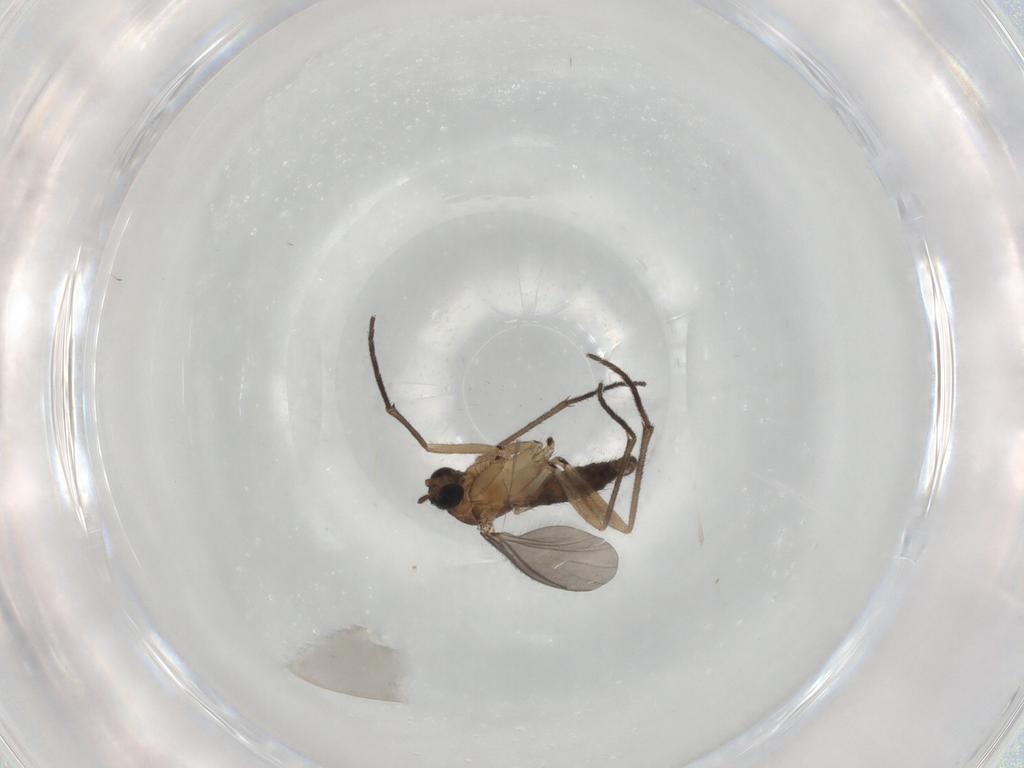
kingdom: Animalia
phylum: Arthropoda
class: Insecta
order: Diptera
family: Sciaridae
